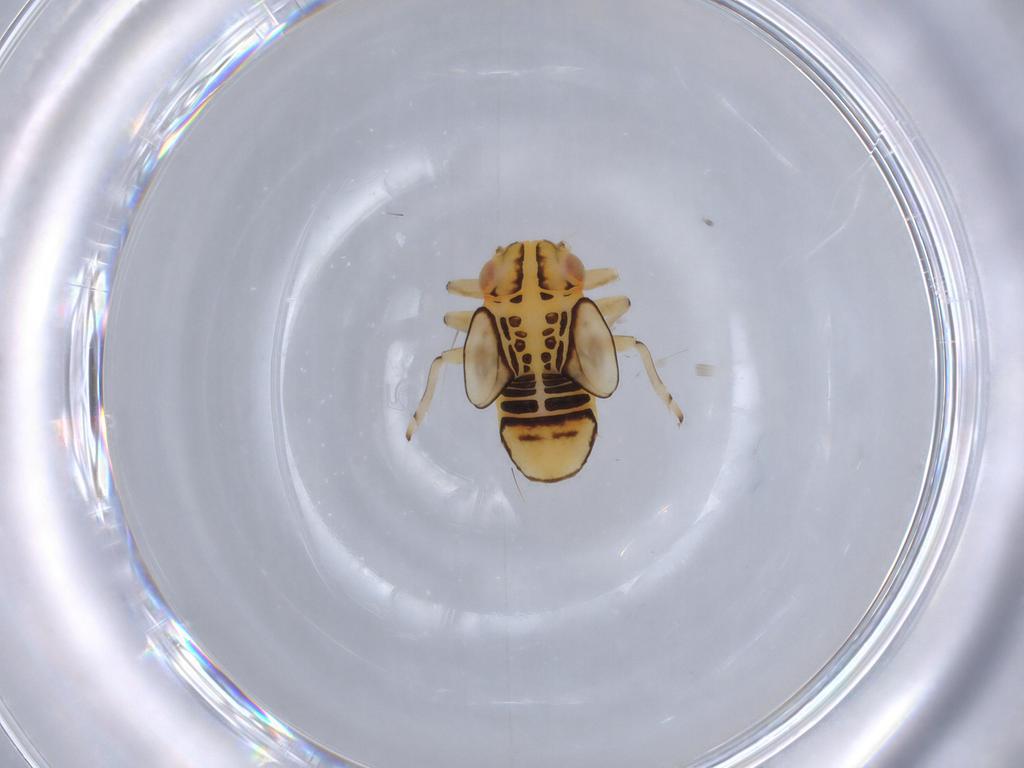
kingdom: Animalia
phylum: Arthropoda
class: Insecta
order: Hemiptera
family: Psyllidae
